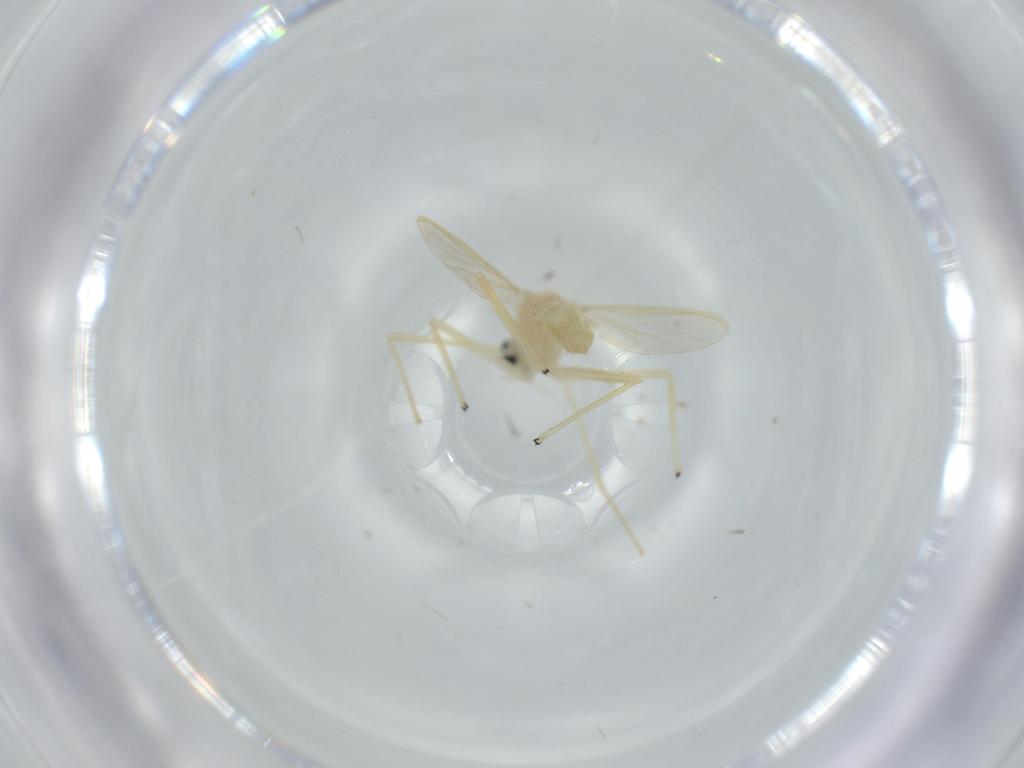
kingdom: Animalia
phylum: Arthropoda
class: Insecta
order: Diptera
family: Chironomidae
